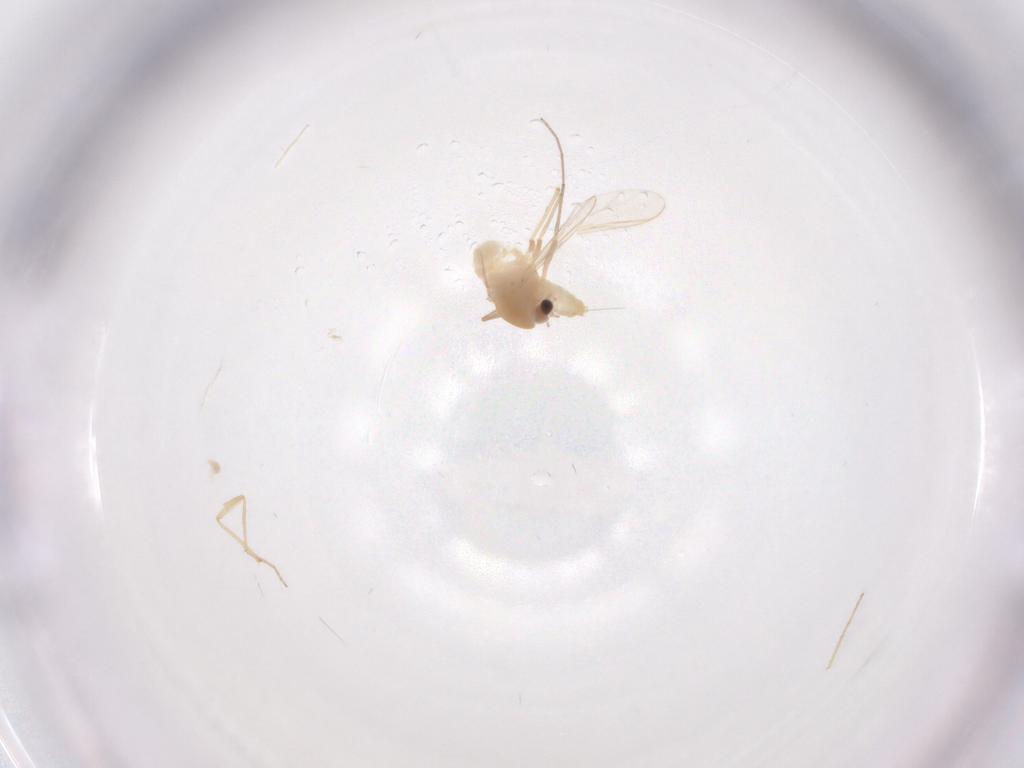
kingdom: Animalia
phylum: Arthropoda
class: Insecta
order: Diptera
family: Chironomidae
